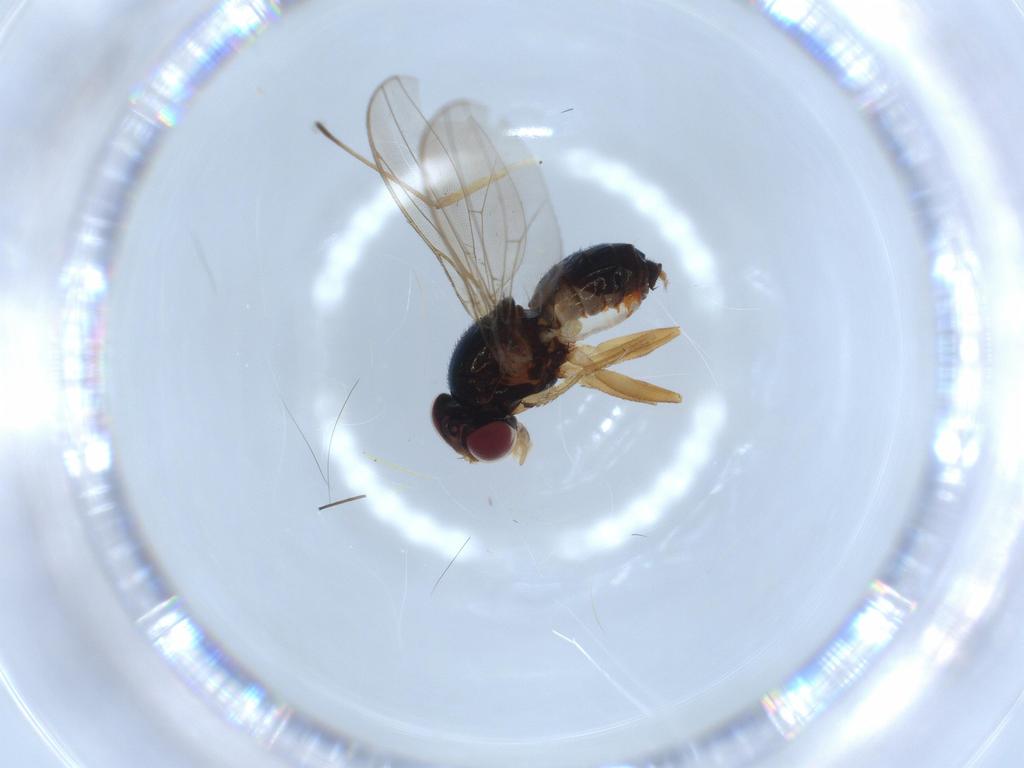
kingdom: Animalia
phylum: Arthropoda
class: Insecta
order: Diptera
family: Asteiidae
